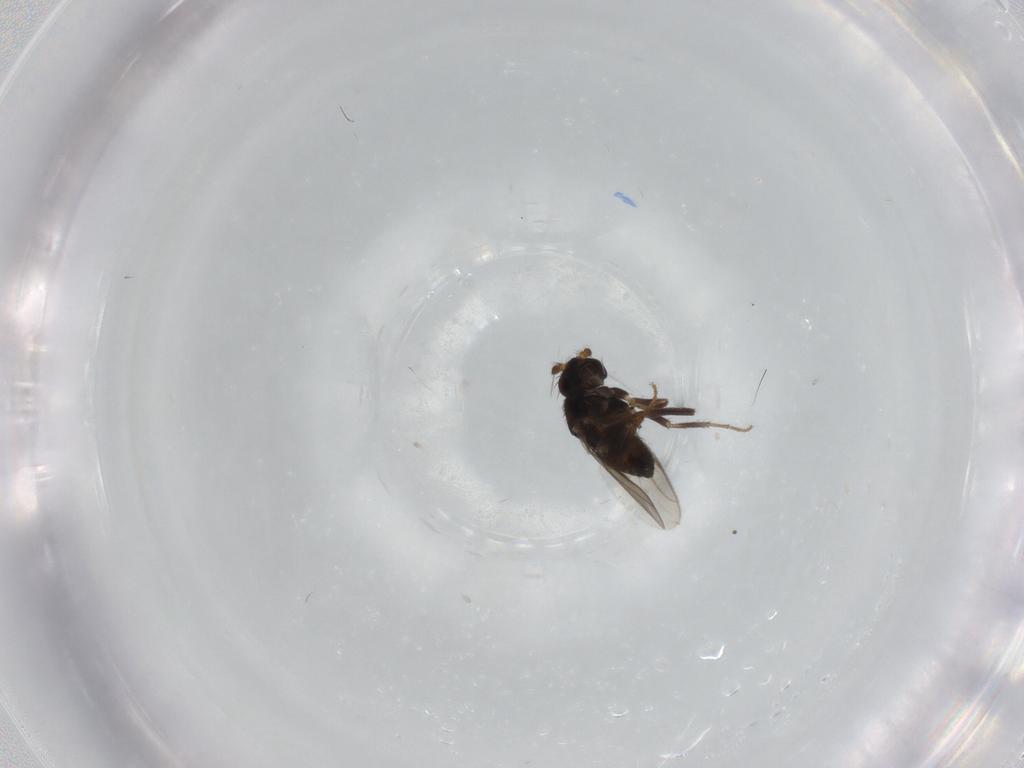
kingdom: Animalia
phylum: Arthropoda
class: Insecta
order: Diptera
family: Sphaeroceridae
